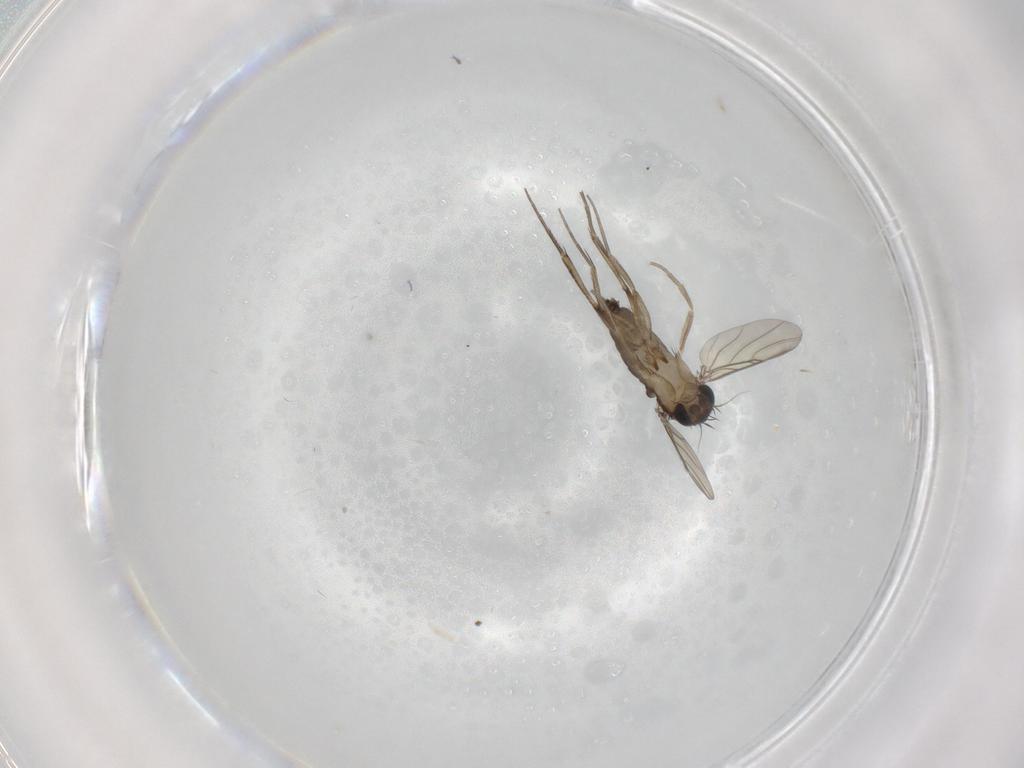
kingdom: Animalia
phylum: Arthropoda
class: Insecta
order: Diptera
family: Phoridae
